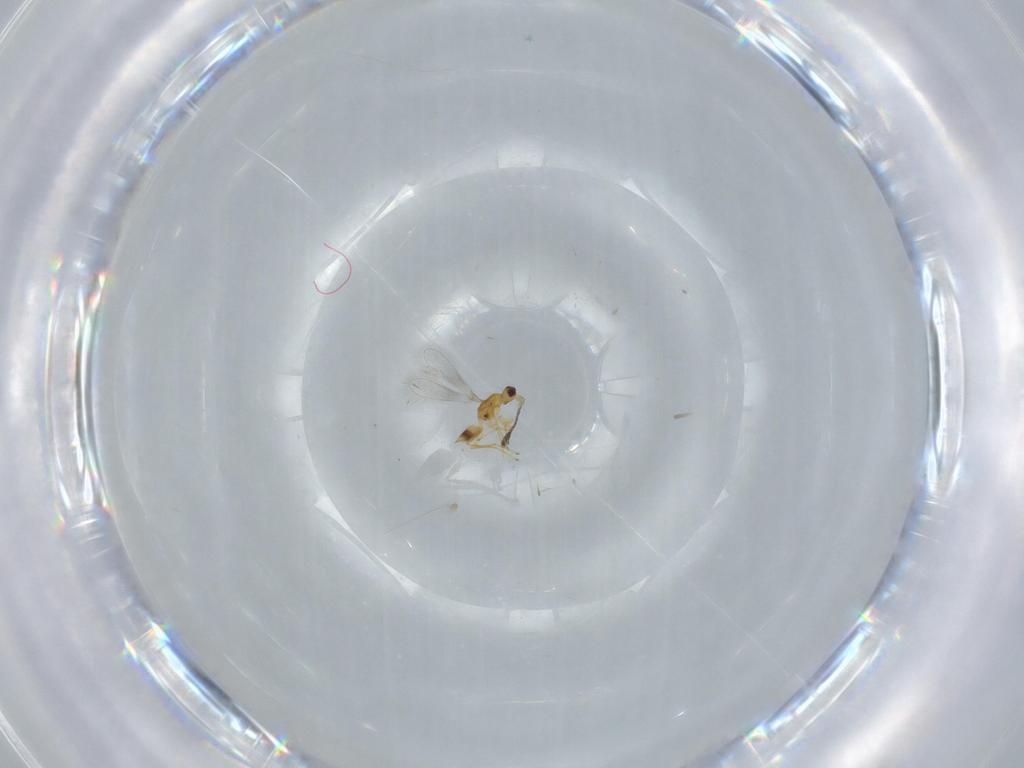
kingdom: Animalia
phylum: Arthropoda
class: Insecta
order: Hymenoptera
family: Mymaridae
